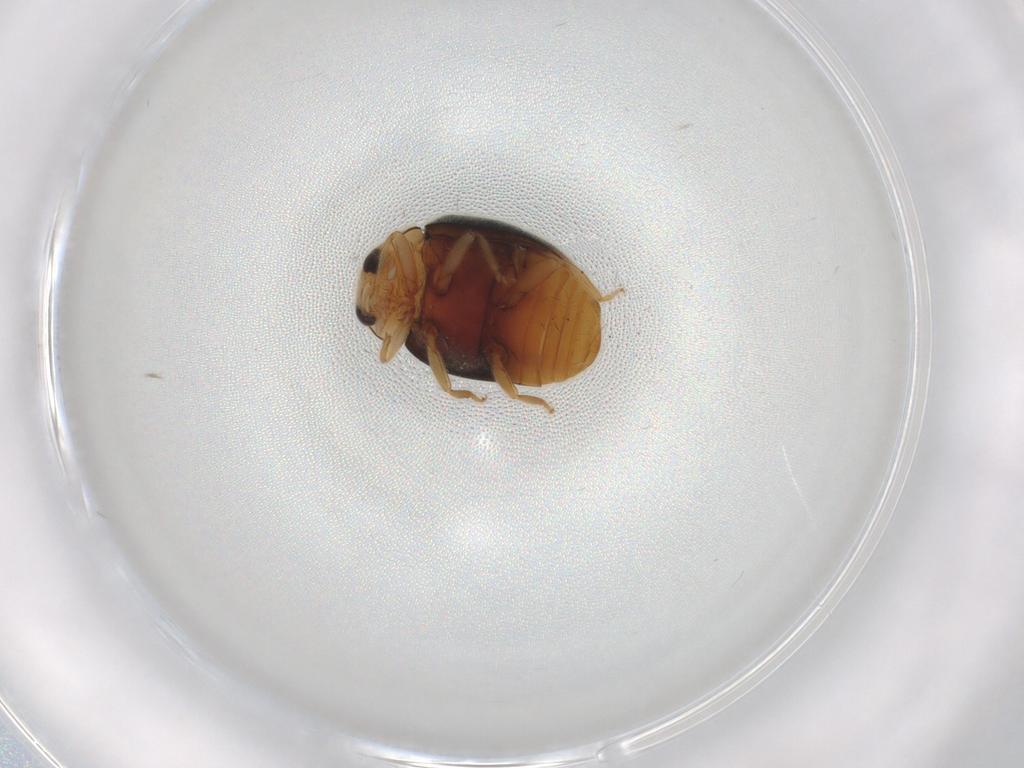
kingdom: Animalia
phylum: Arthropoda
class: Insecta
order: Coleoptera
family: Coccinellidae
